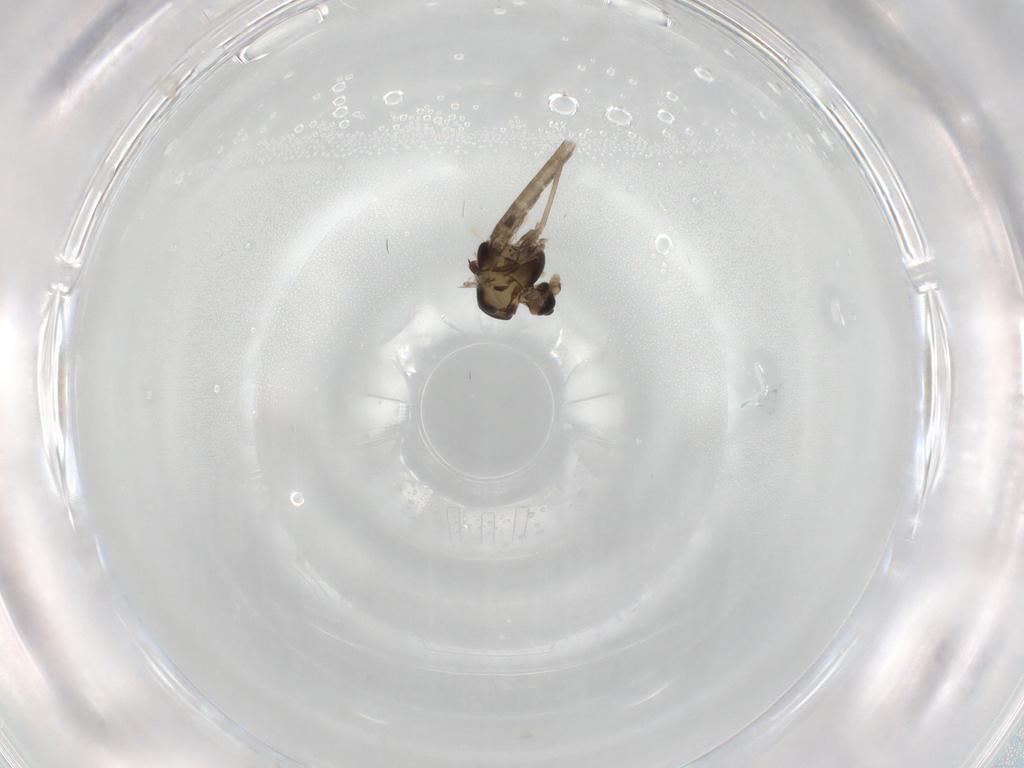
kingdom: Animalia
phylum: Arthropoda
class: Insecta
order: Diptera
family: Chironomidae
